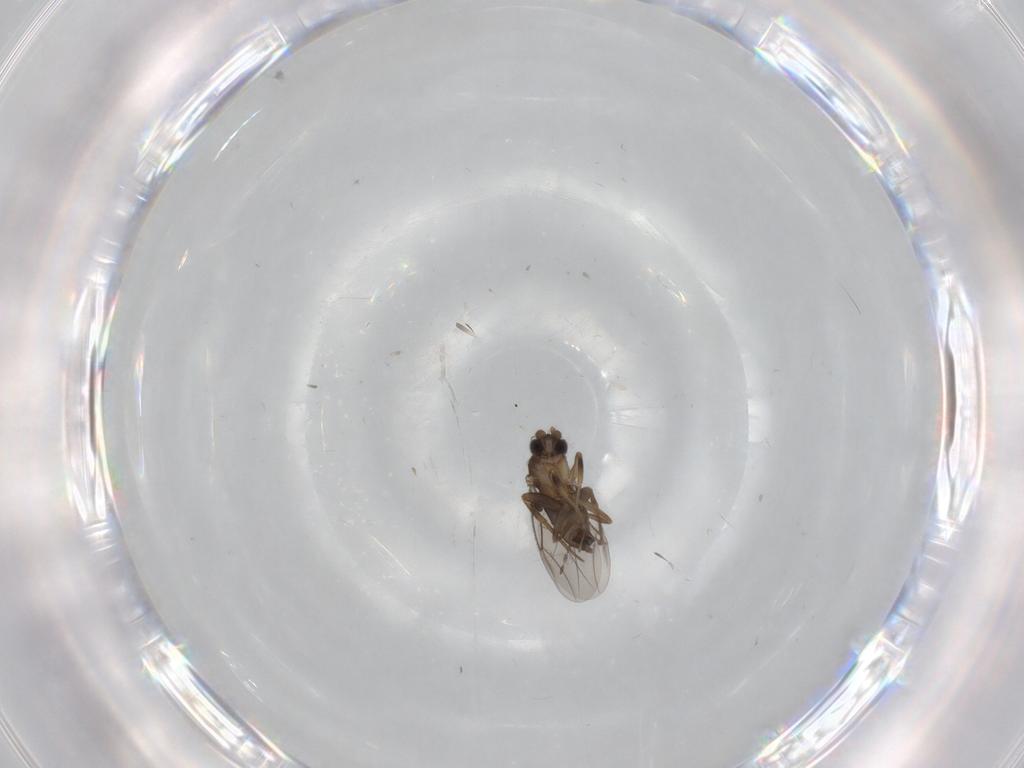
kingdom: Animalia
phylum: Arthropoda
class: Insecta
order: Diptera
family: Phoridae
